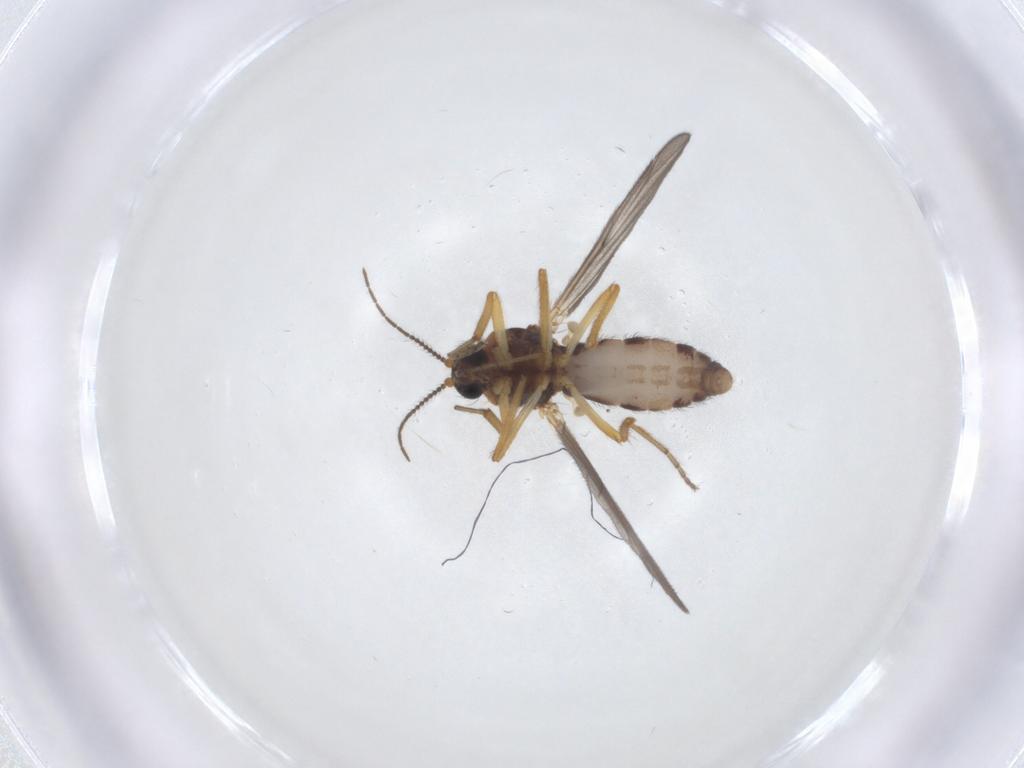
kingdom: Animalia
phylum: Arthropoda
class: Insecta
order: Diptera
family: Ceratopogonidae
